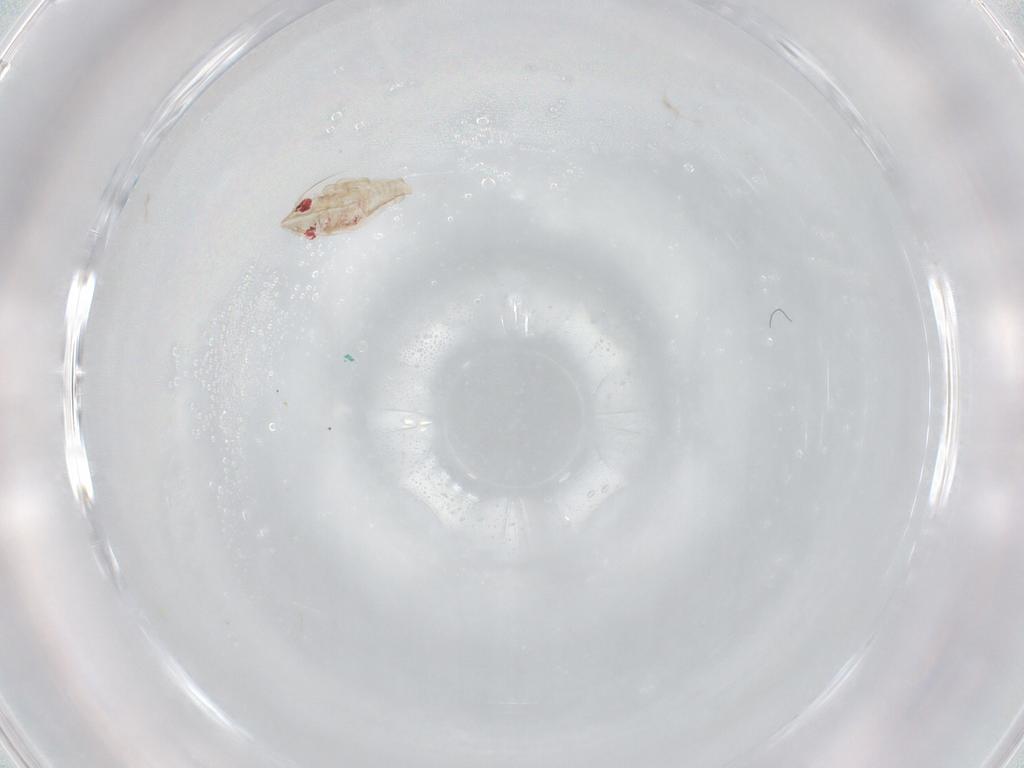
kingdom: Animalia
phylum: Arthropoda
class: Insecta
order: Hemiptera
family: Cicadellidae
